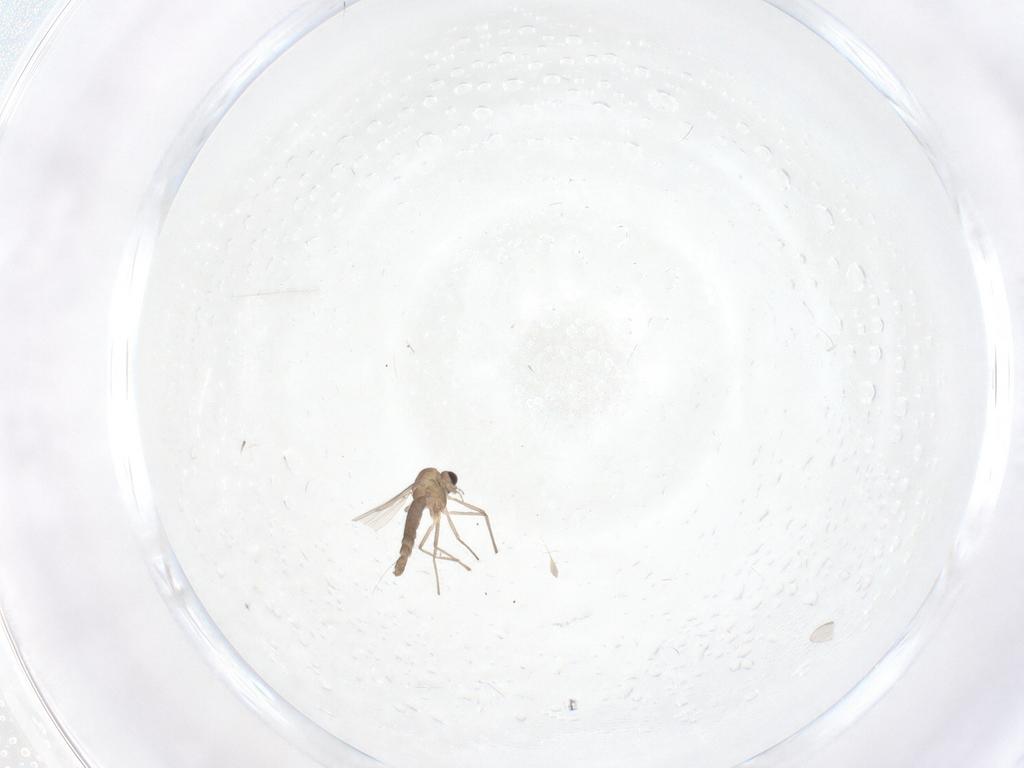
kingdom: Animalia
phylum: Arthropoda
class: Insecta
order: Diptera
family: Chironomidae
